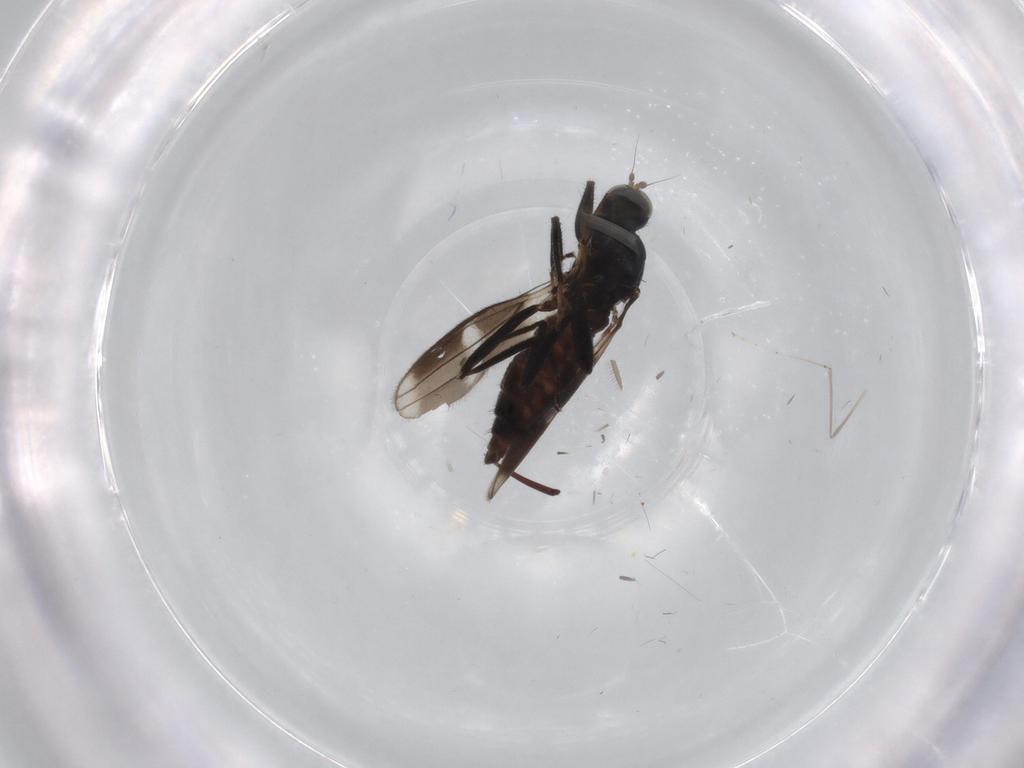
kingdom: Animalia
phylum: Arthropoda
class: Insecta
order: Diptera
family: Hybotidae
